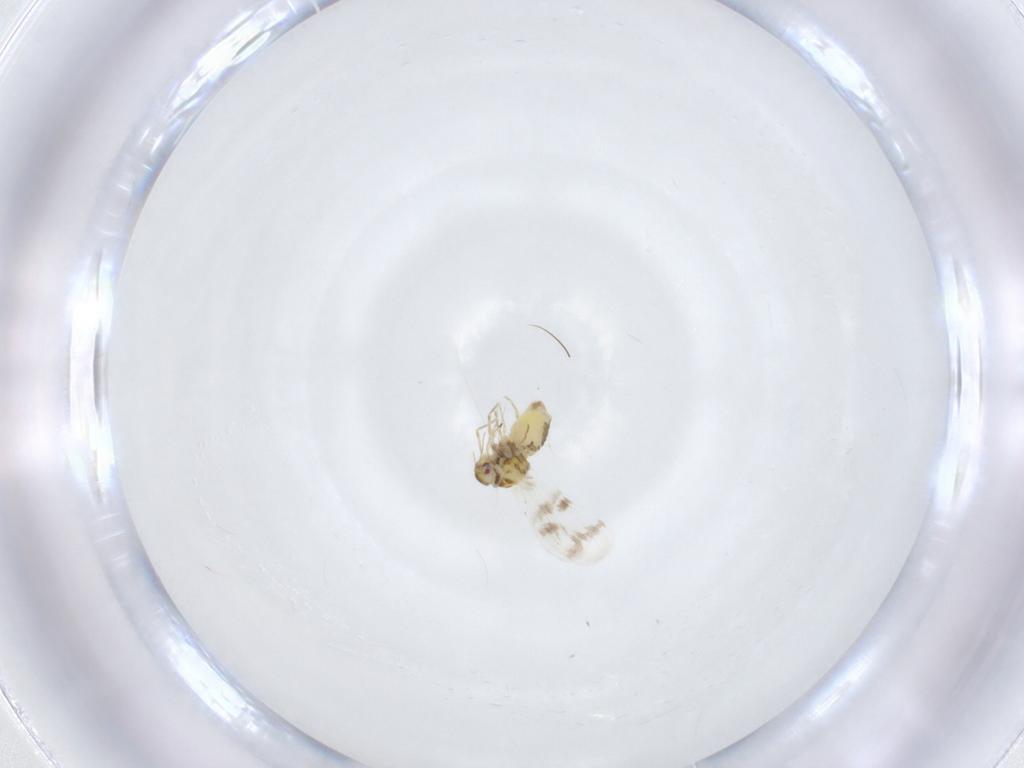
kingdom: Animalia
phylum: Arthropoda
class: Insecta
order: Hemiptera
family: Aleyrodidae
